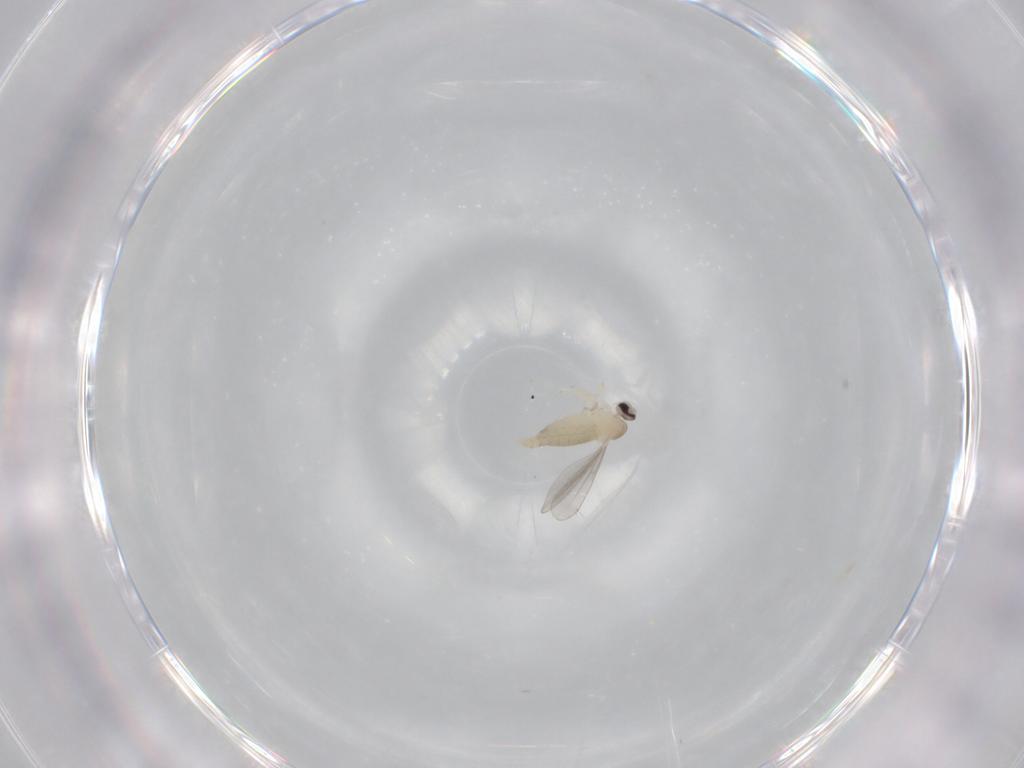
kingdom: Animalia
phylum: Arthropoda
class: Insecta
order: Diptera
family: Cecidomyiidae
